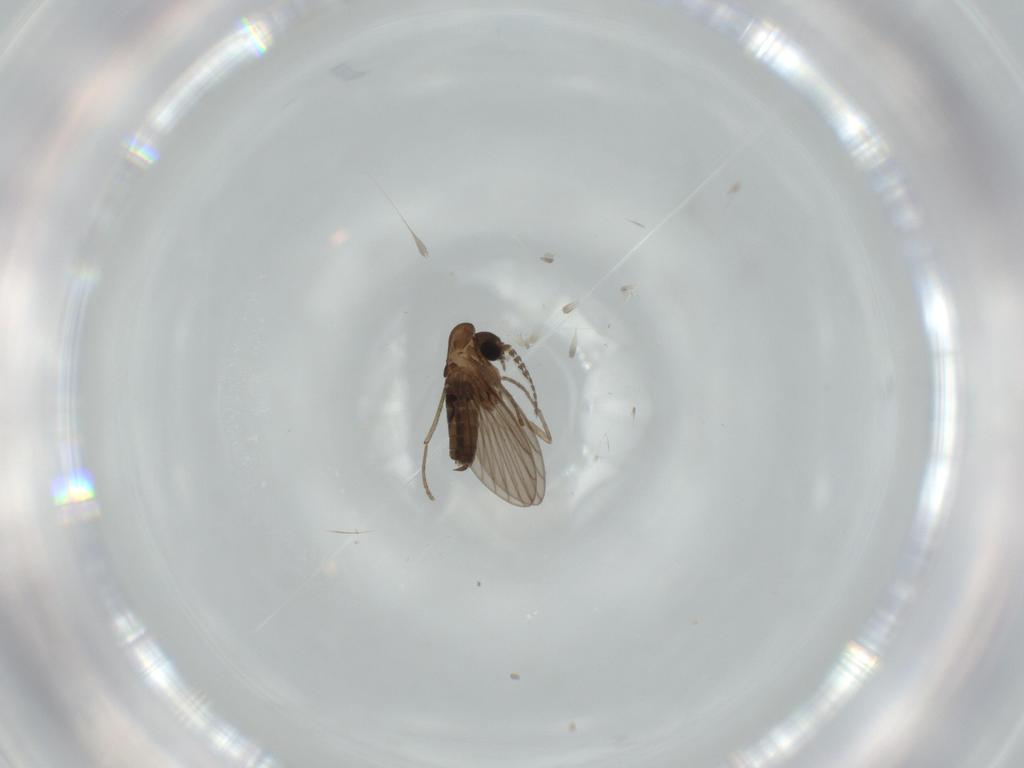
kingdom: Animalia
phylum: Arthropoda
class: Insecta
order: Diptera
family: Psychodidae
